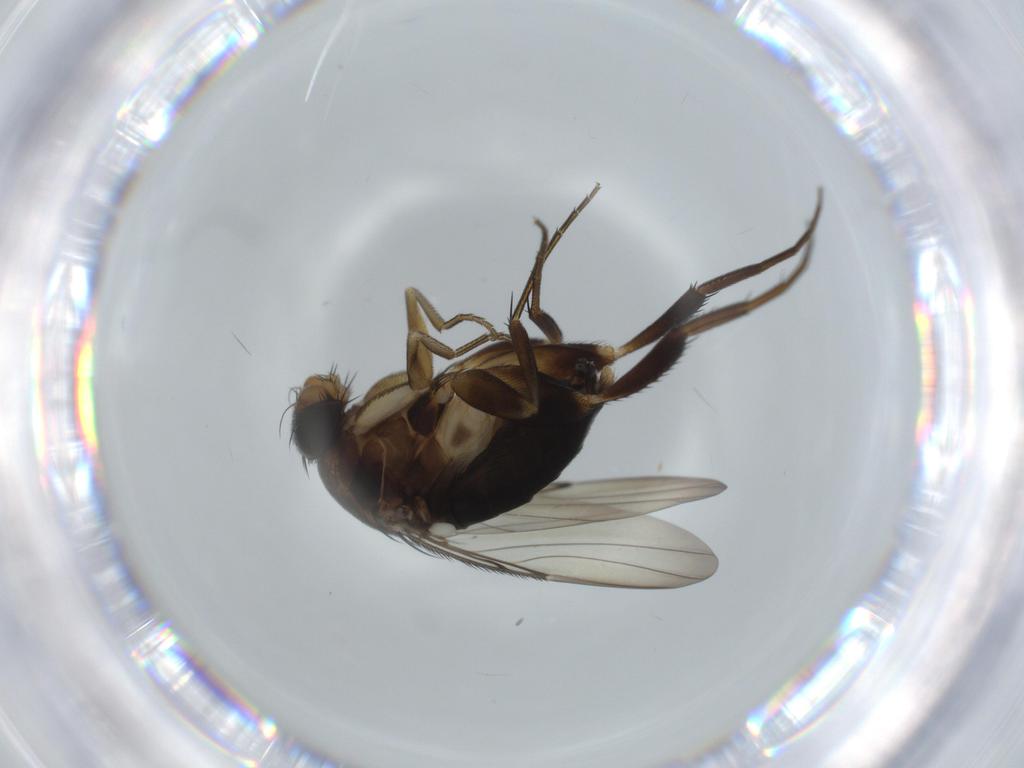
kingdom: Animalia
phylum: Arthropoda
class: Insecta
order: Diptera
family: Phoridae
